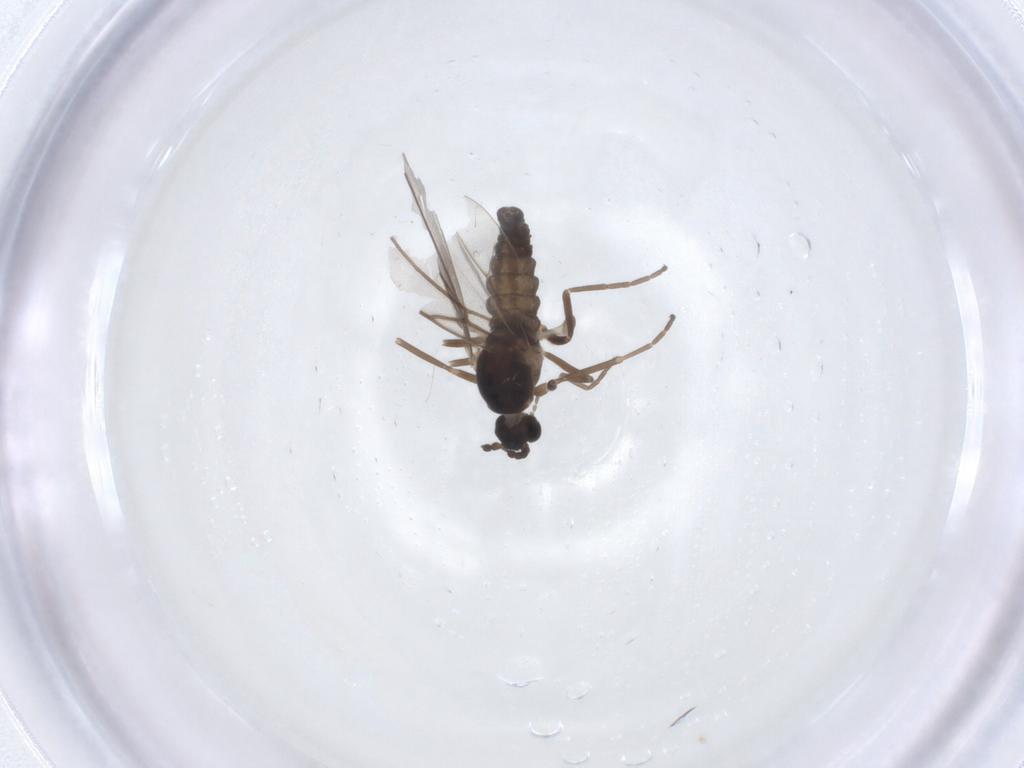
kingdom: Animalia
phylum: Arthropoda
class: Insecta
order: Diptera
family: Cecidomyiidae
